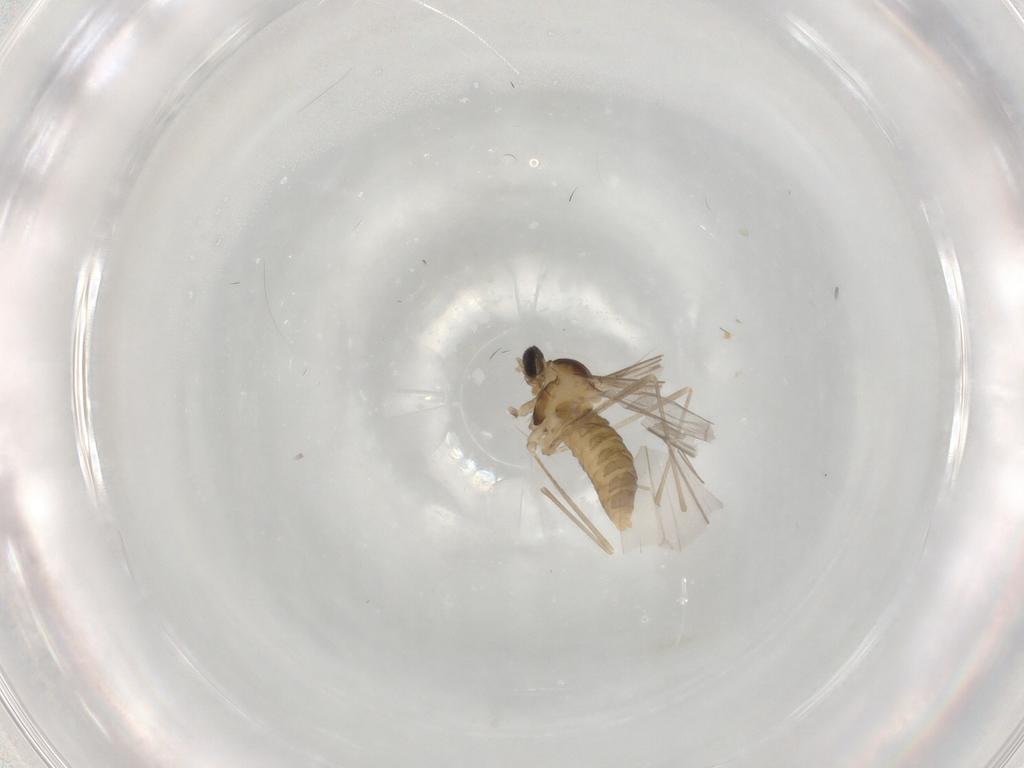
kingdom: Animalia
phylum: Arthropoda
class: Insecta
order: Diptera
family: Cecidomyiidae
